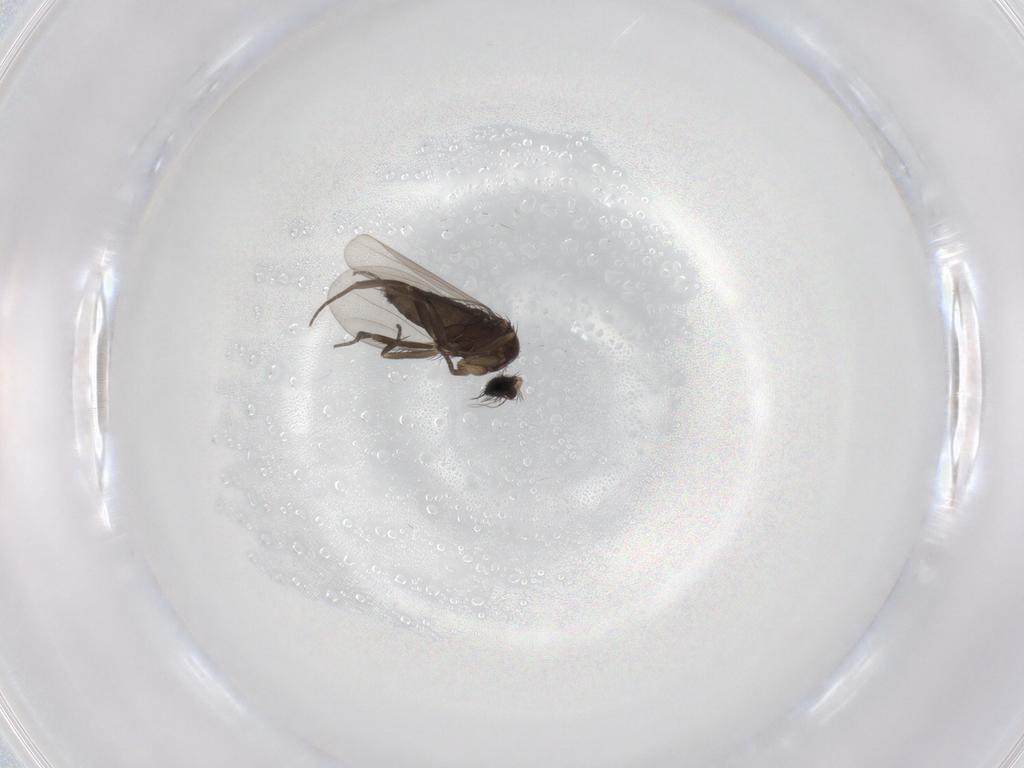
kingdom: Animalia
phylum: Arthropoda
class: Insecta
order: Diptera
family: Phoridae
